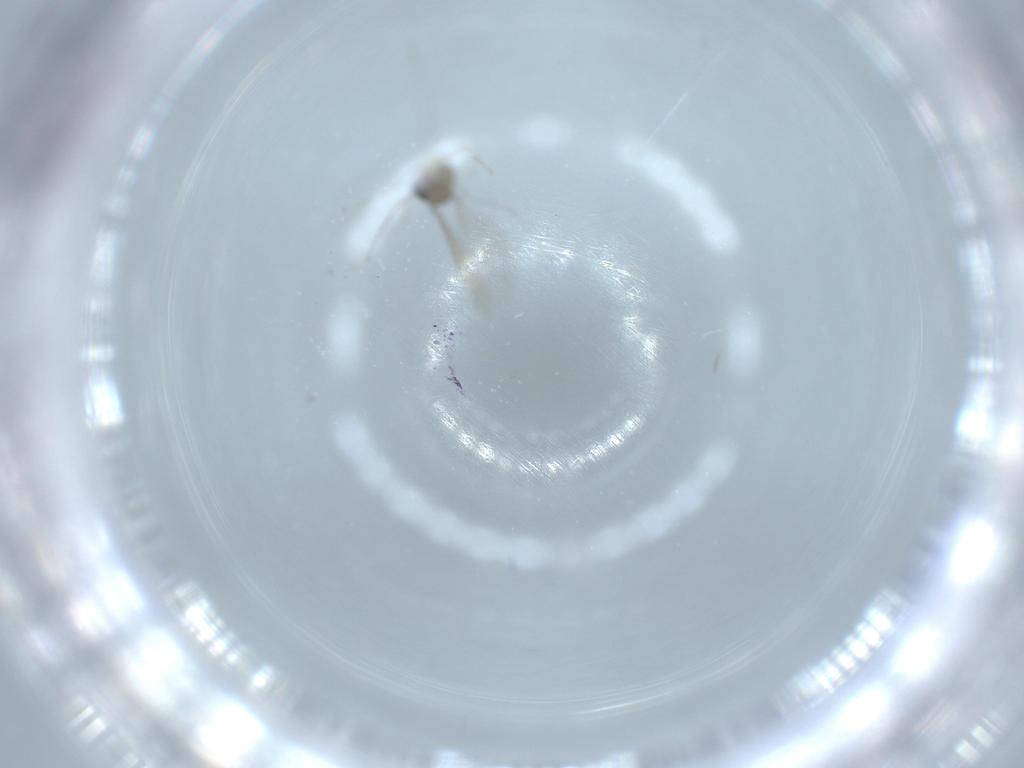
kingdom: Animalia
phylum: Arthropoda
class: Insecta
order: Diptera
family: Cecidomyiidae
